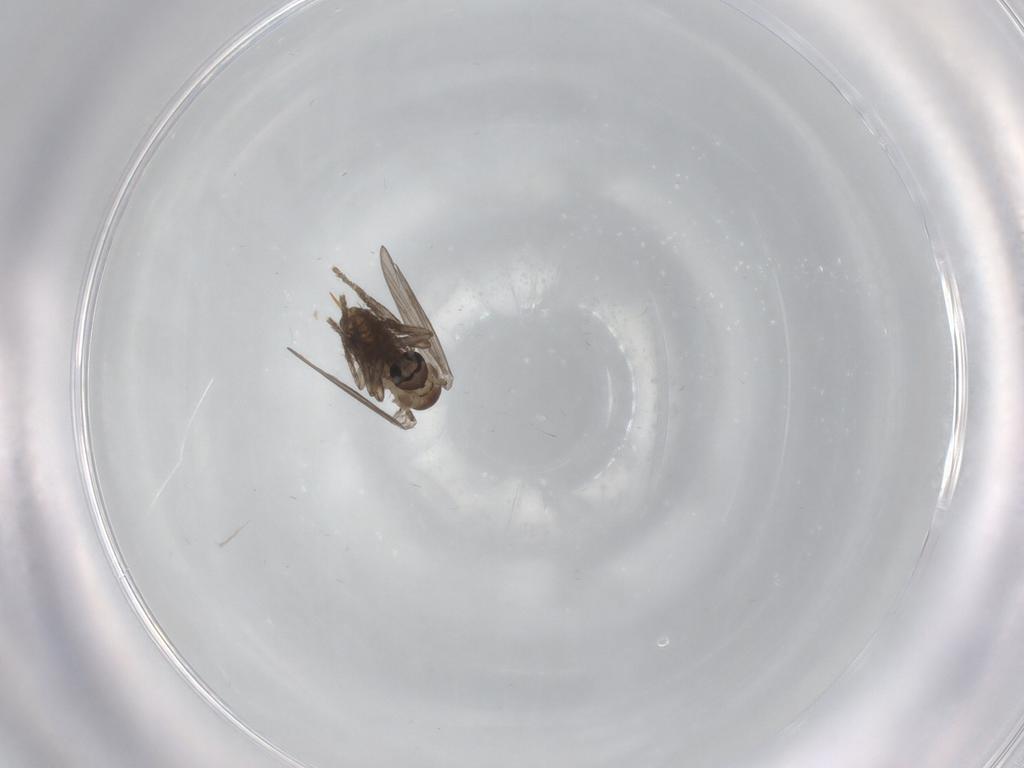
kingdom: Animalia
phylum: Arthropoda
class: Insecta
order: Diptera
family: Psychodidae
